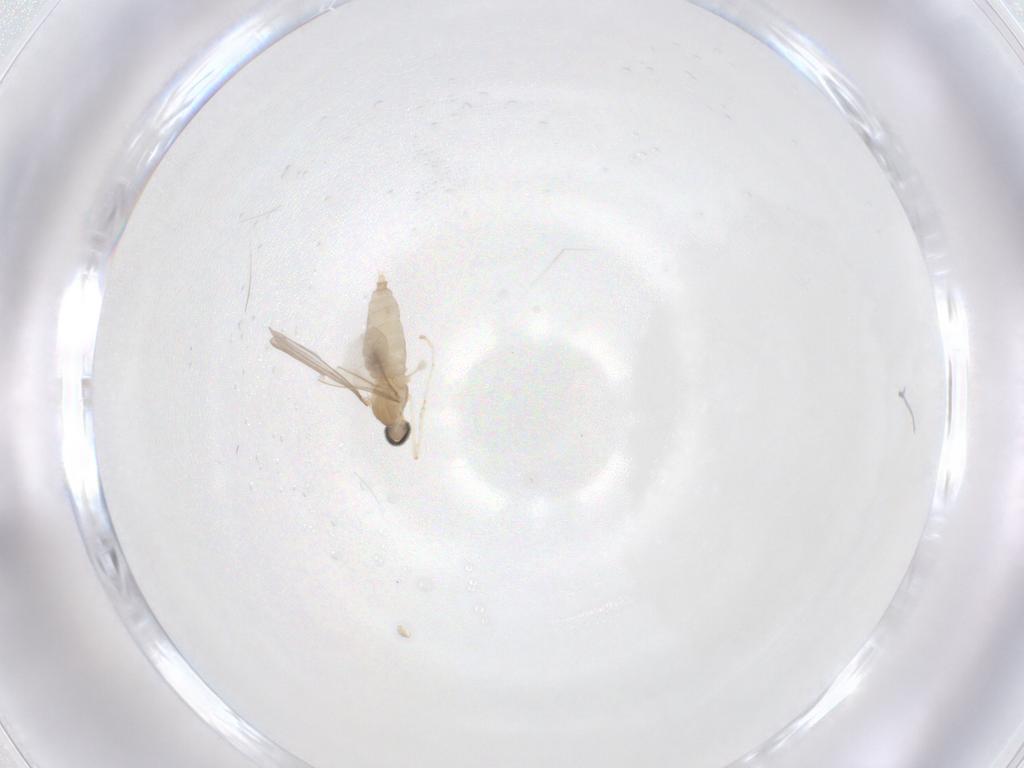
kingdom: Animalia
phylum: Arthropoda
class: Insecta
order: Diptera
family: Cecidomyiidae
